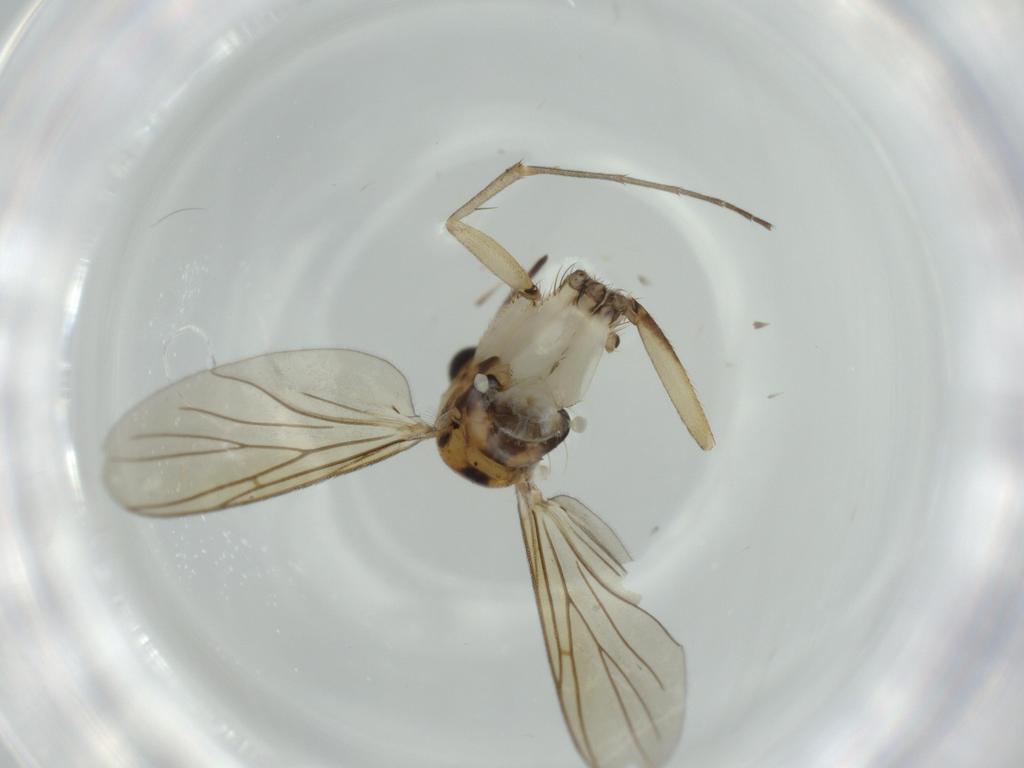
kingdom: Animalia
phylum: Arthropoda
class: Insecta
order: Diptera
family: Mycetophilidae
